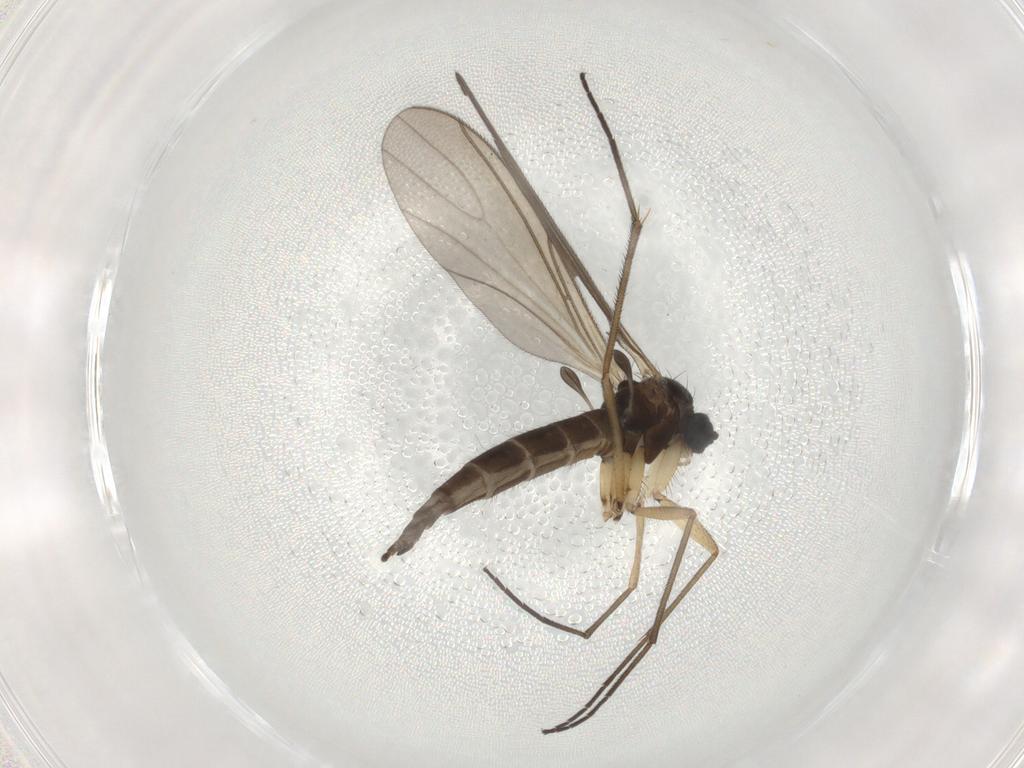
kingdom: Animalia
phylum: Arthropoda
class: Insecta
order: Diptera
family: Sciaridae
